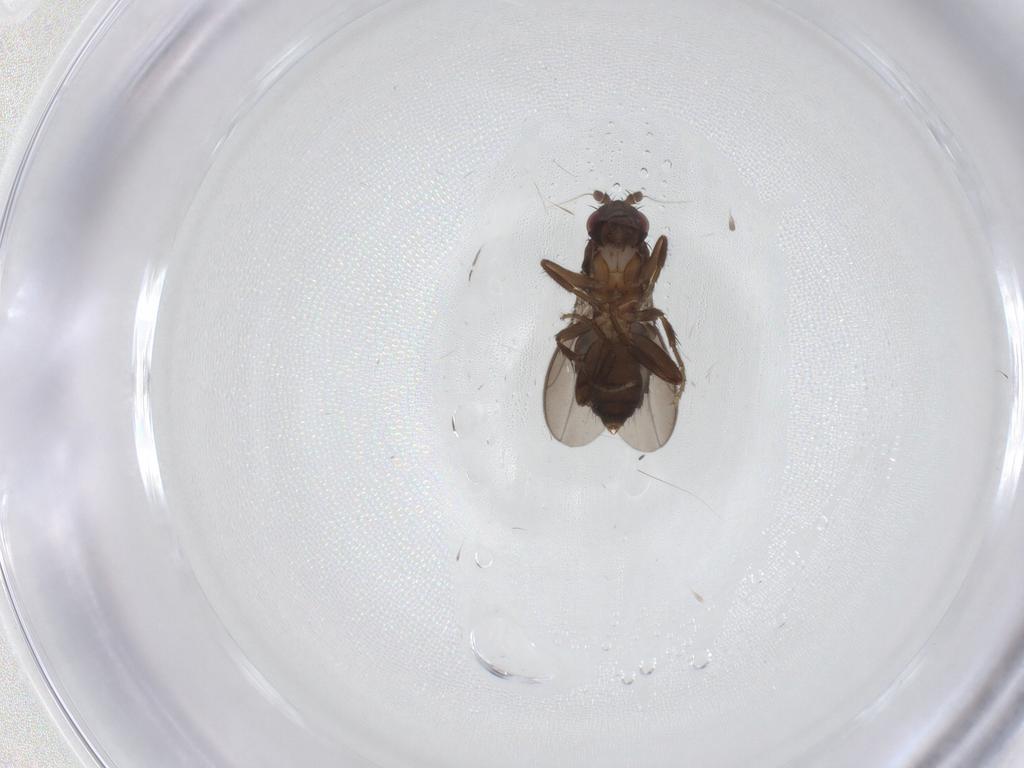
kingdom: Animalia
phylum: Arthropoda
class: Insecta
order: Diptera
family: Sphaeroceridae
